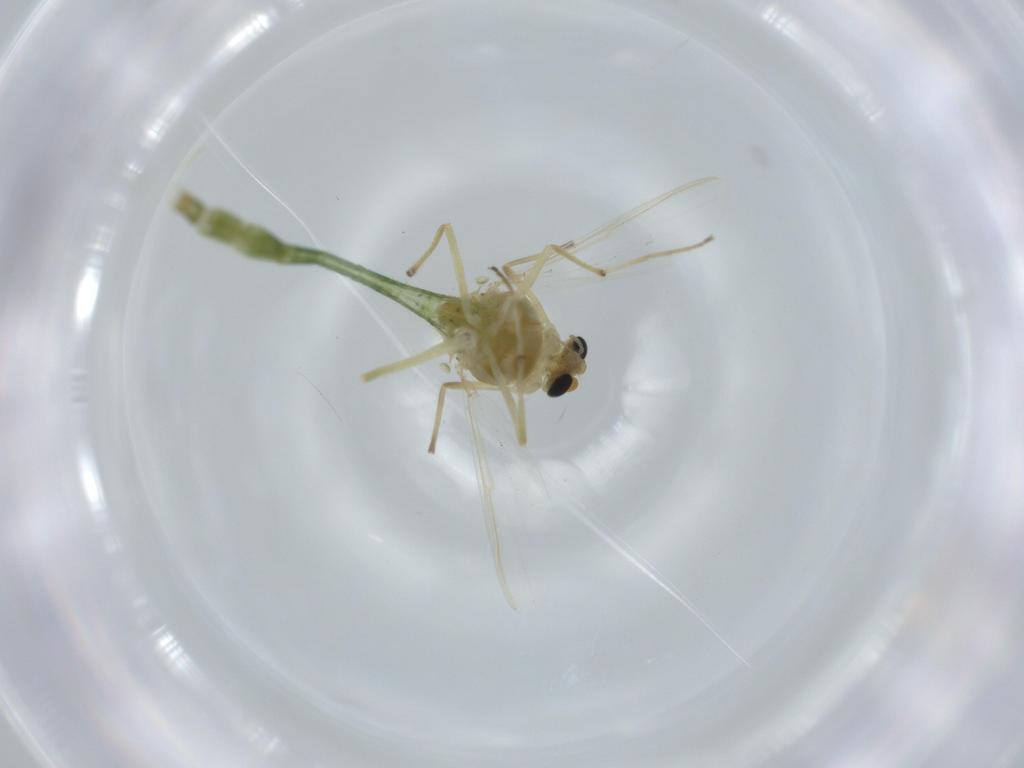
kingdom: Animalia
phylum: Arthropoda
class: Insecta
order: Diptera
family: Chironomidae
